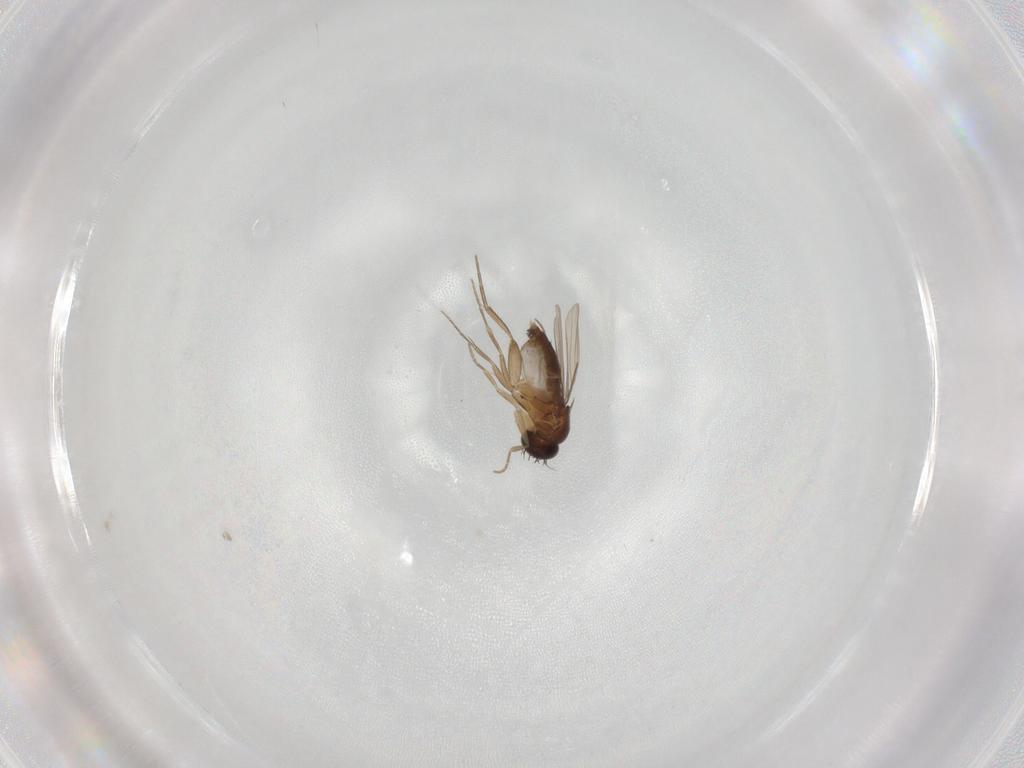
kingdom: Animalia
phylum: Arthropoda
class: Insecta
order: Diptera
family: Phoridae
